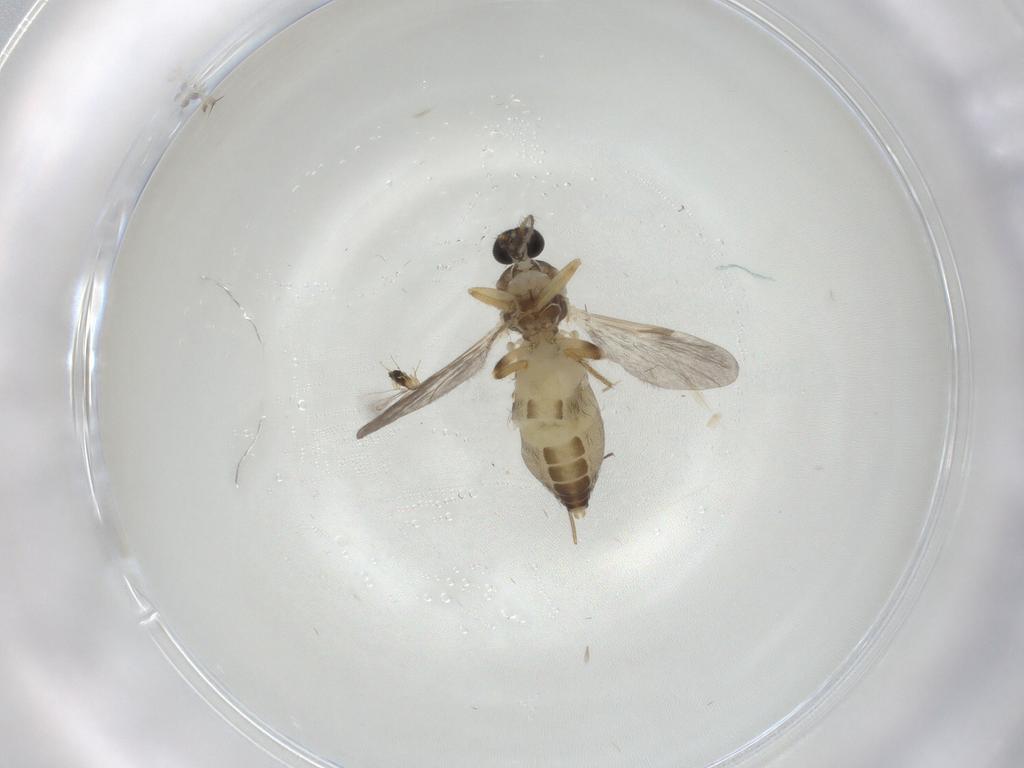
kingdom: Animalia
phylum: Arthropoda
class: Insecta
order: Diptera
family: Ceratopogonidae
